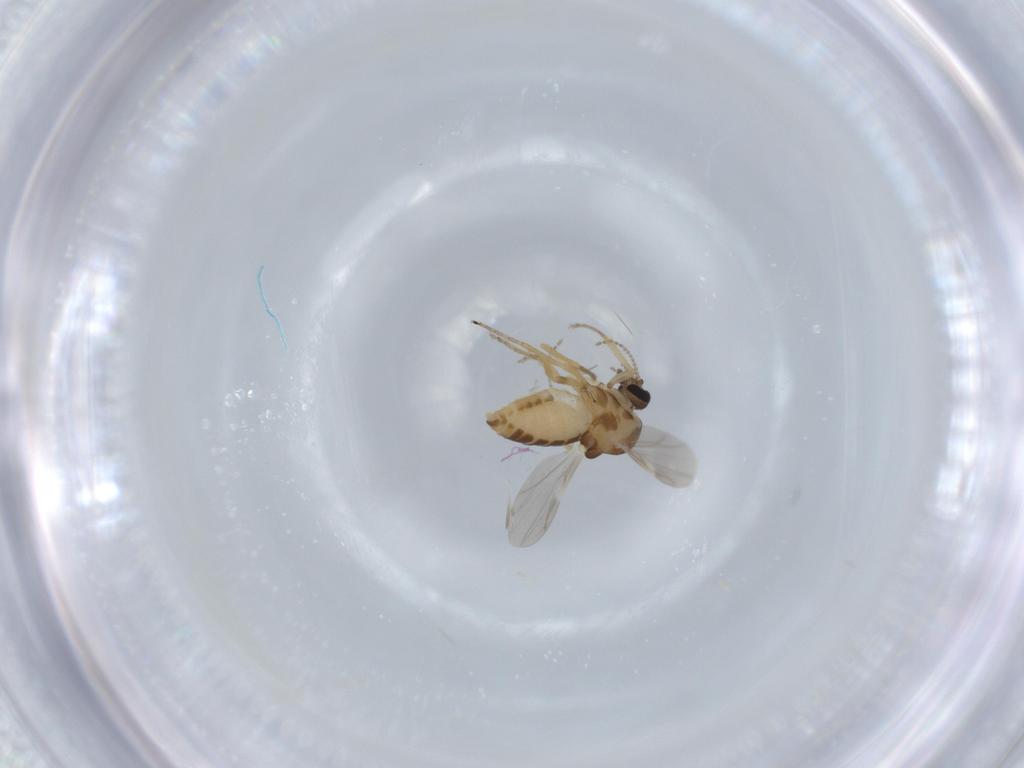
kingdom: Animalia
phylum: Arthropoda
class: Insecta
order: Diptera
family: Ceratopogonidae
